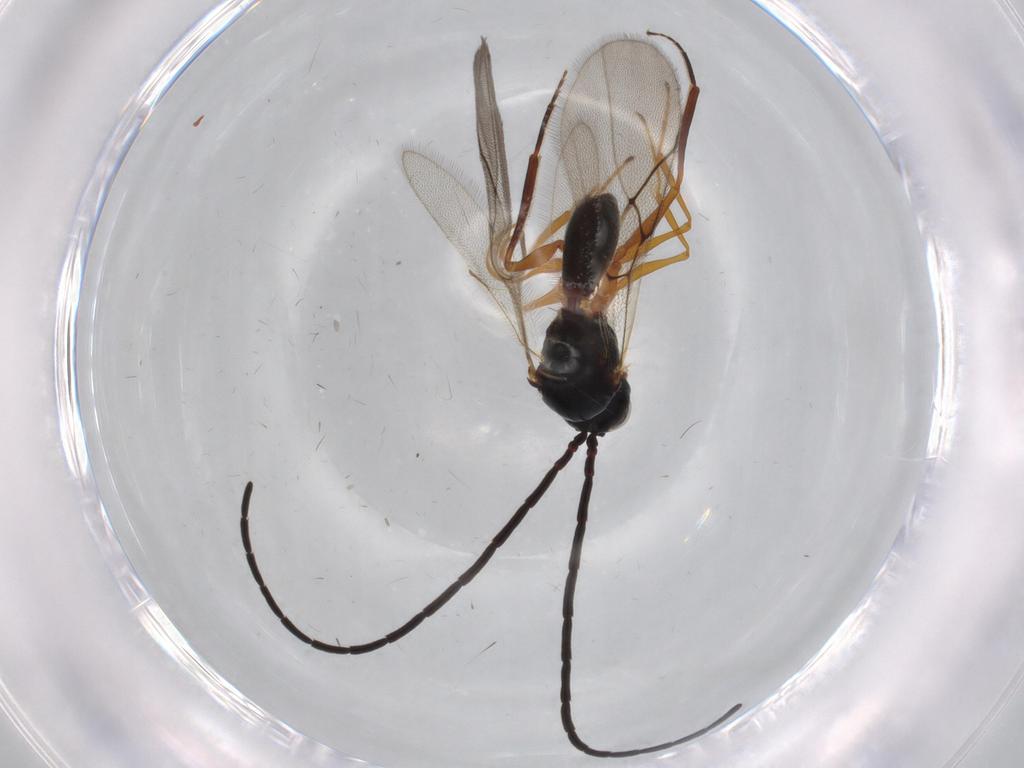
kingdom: Animalia
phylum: Arthropoda
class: Insecta
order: Hymenoptera
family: Figitidae
